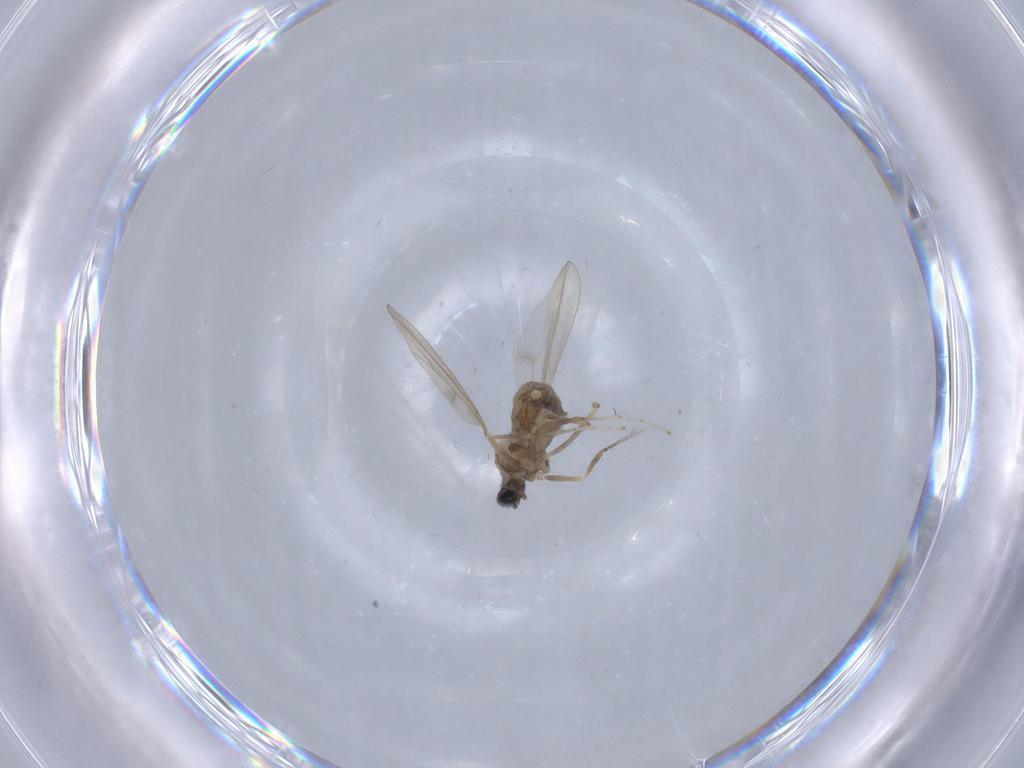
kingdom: Animalia
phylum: Arthropoda
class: Insecta
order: Diptera
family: Cecidomyiidae
